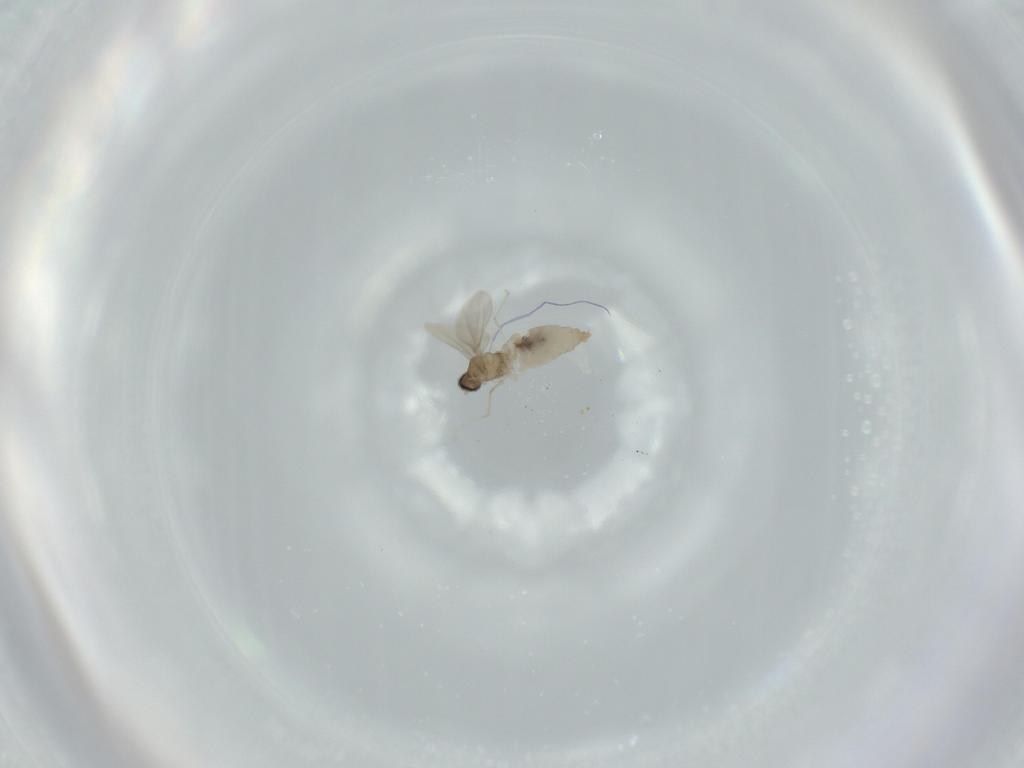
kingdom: Animalia
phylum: Arthropoda
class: Insecta
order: Diptera
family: Cecidomyiidae
